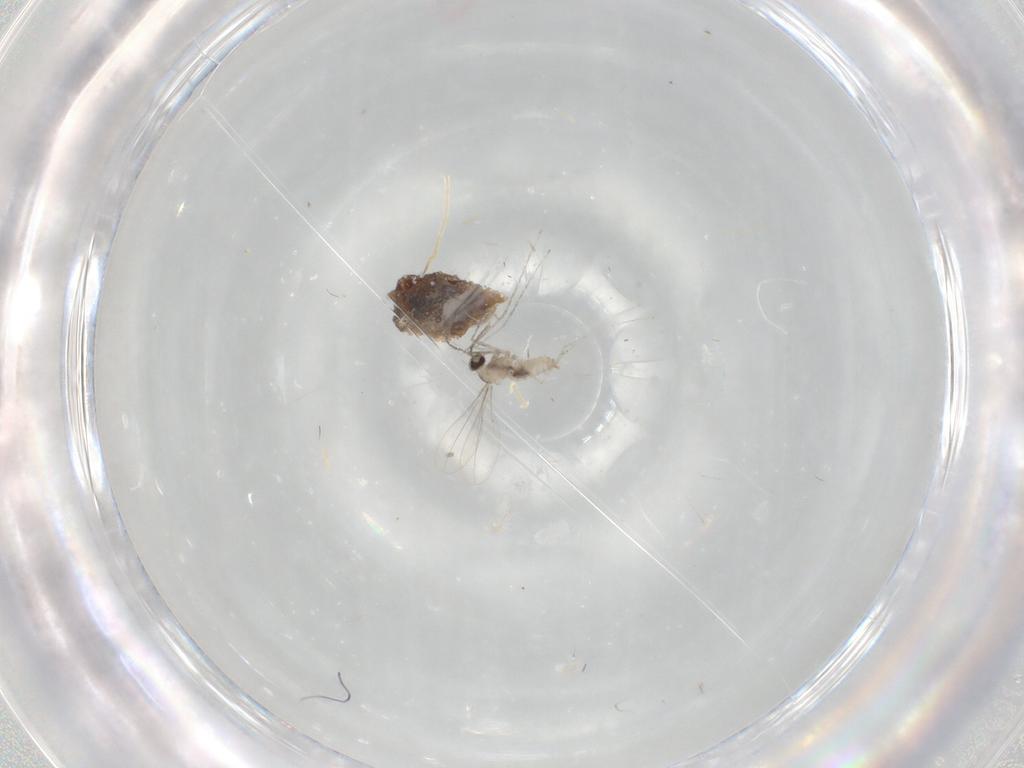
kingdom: Animalia
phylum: Arthropoda
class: Insecta
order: Diptera
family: Cecidomyiidae
